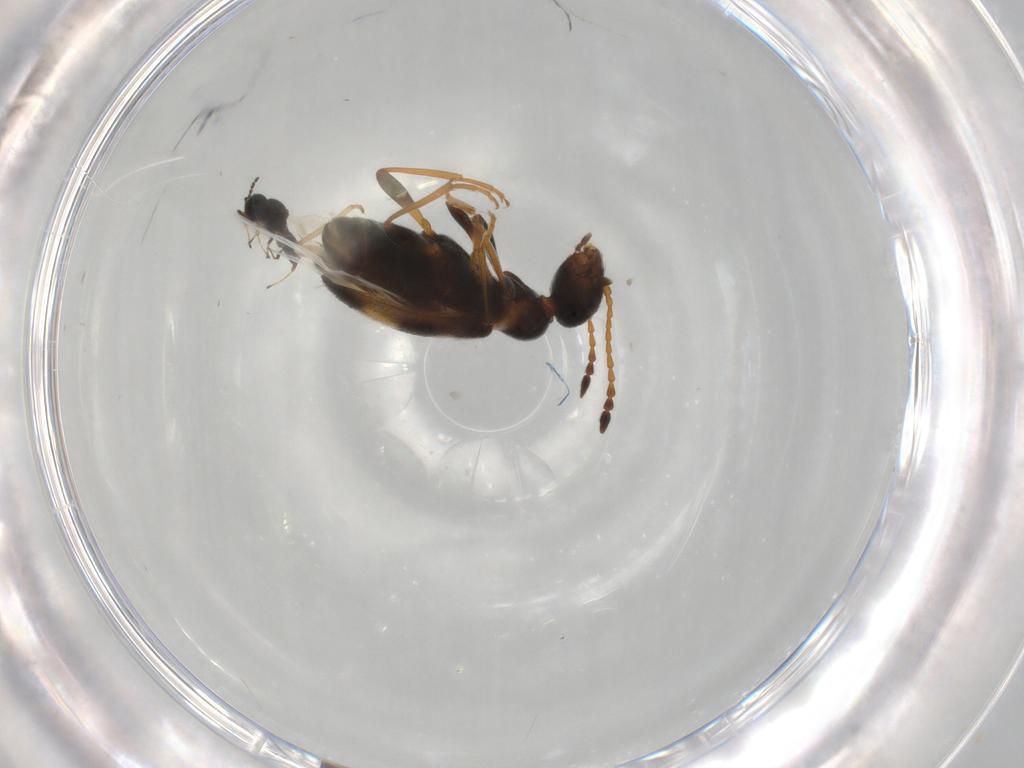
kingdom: Animalia
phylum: Arthropoda
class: Insecta
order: Coleoptera
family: Anthicidae
